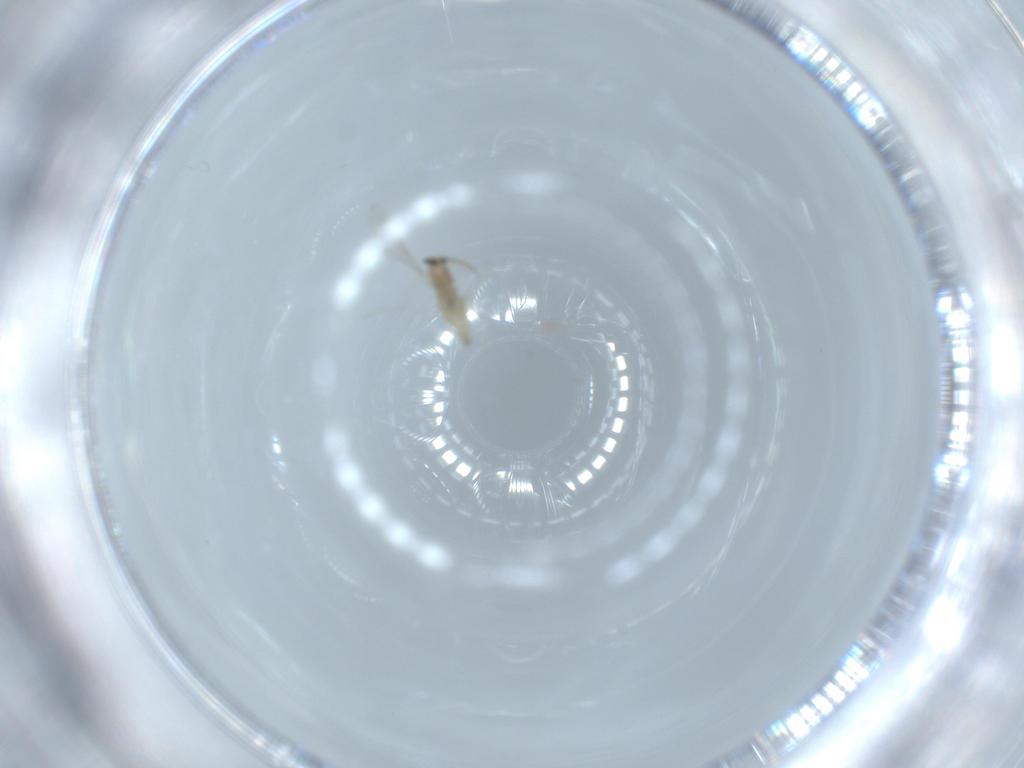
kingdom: Animalia
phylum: Arthropoda
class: Insecta
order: Diptera
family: Cecidomyiidae
